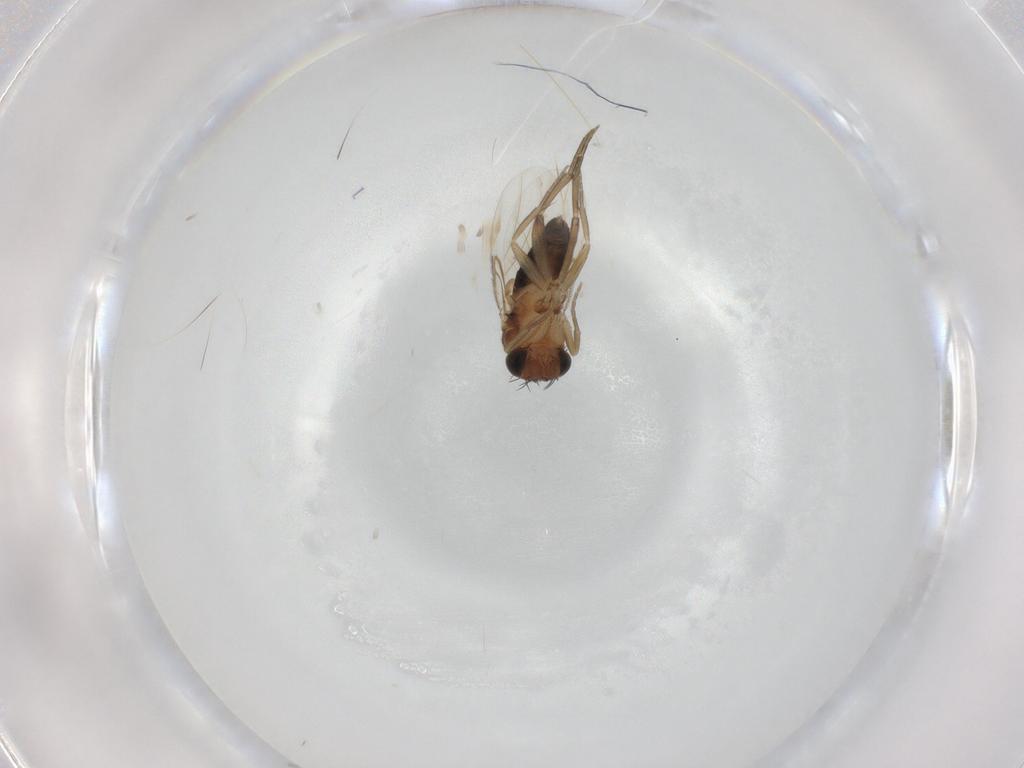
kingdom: Animalia
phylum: Arthropoda
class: Insecta
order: Diptera
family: Phoridae
